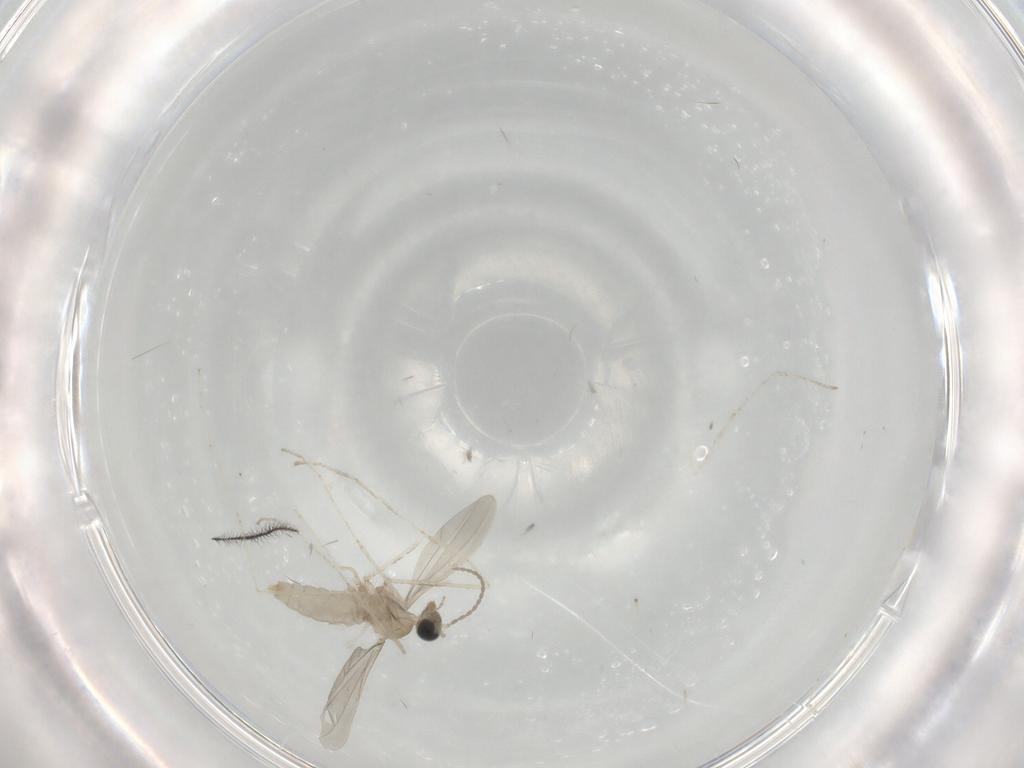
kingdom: Animalia
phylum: Arthropoda
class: Insecta
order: Diptera
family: Cecidomyiidae
